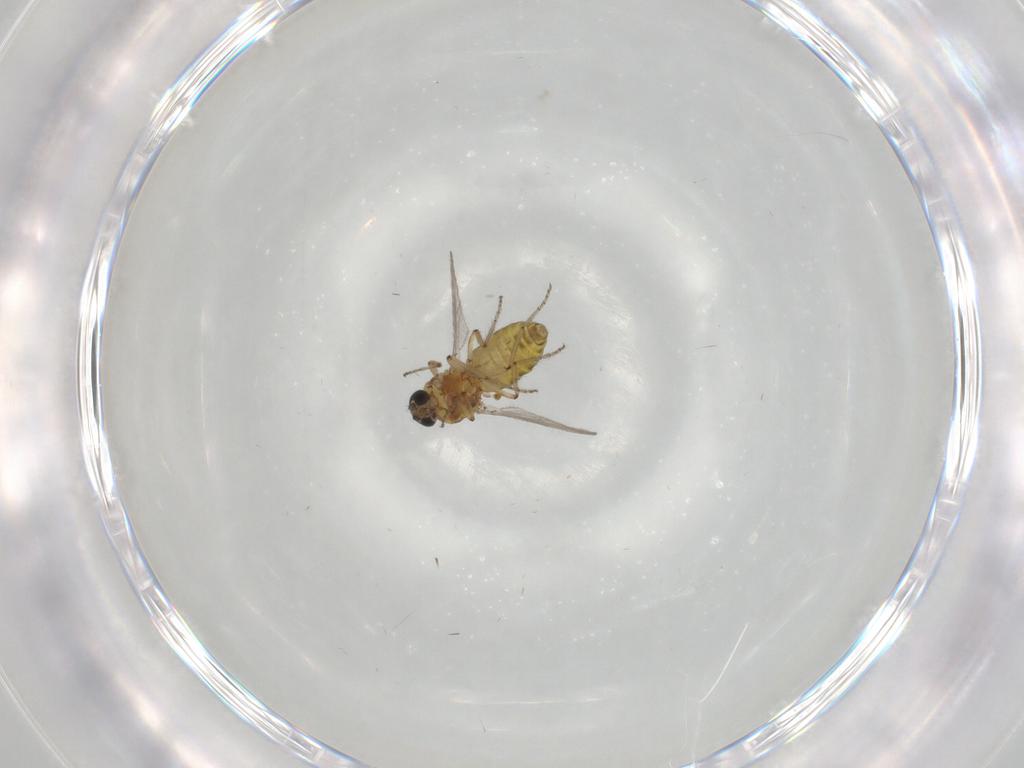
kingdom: Animalia
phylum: Arthropoda
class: Insecta
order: Diptera
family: Ceratopogonidae
